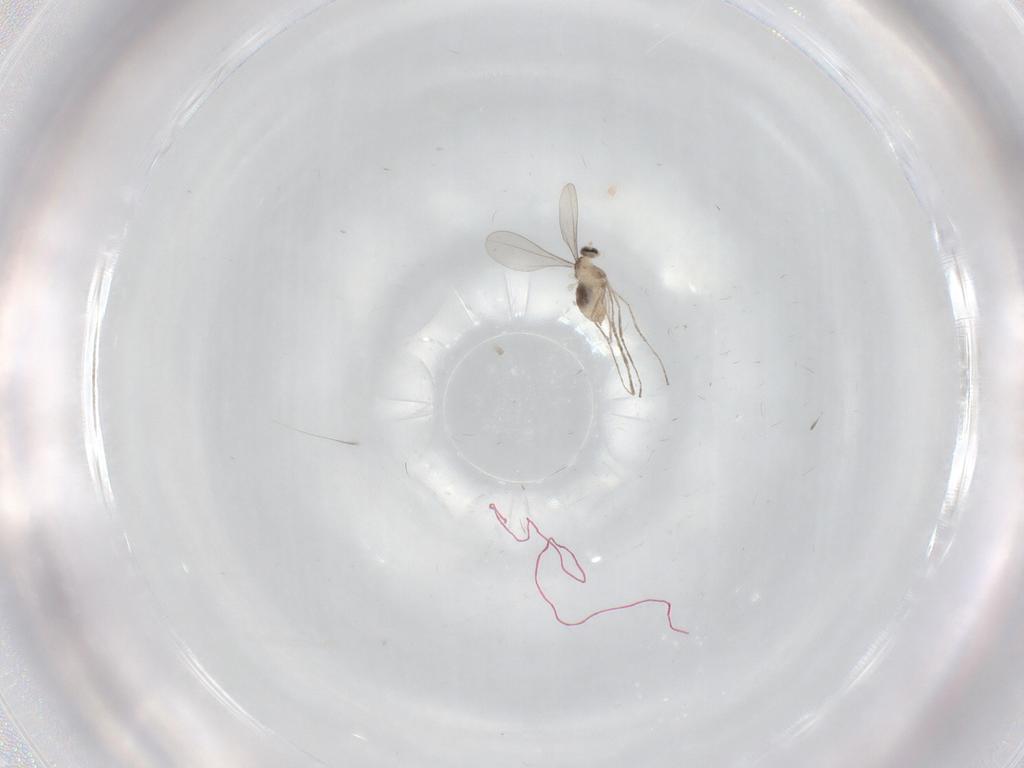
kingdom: Animalia
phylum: Arthropoda
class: Insecta
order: Diptera
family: Cecidomyiidae
